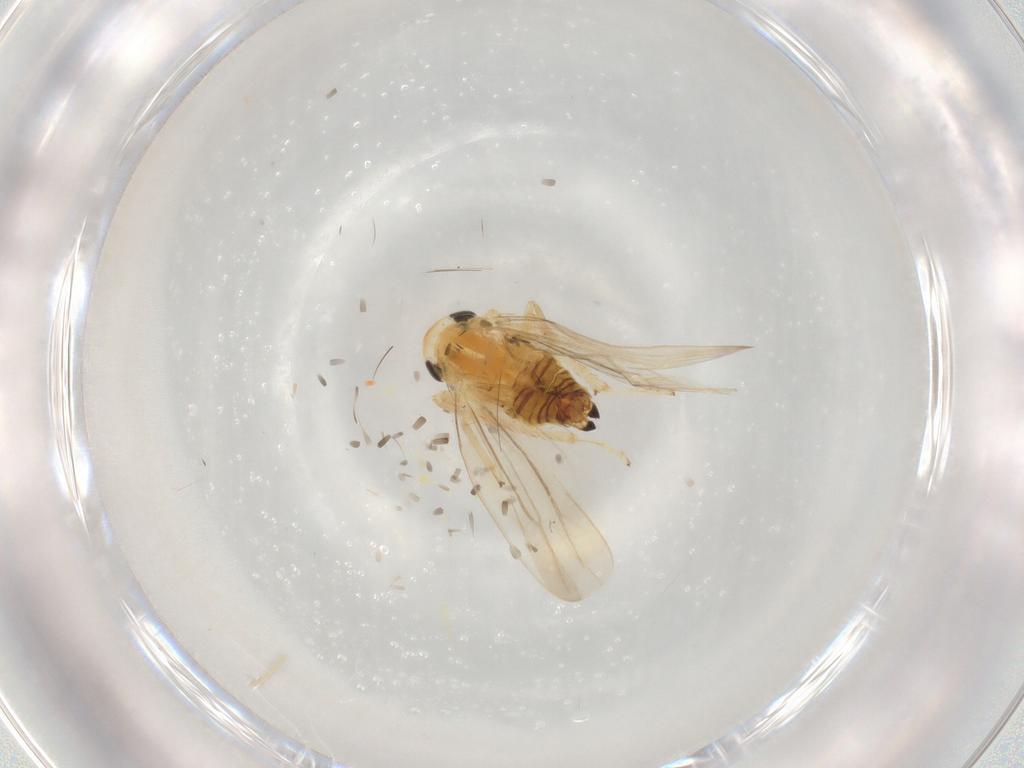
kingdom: Animalia
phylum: Arthropoda
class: Insecta
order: Hemiptera
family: Cicadellidae
